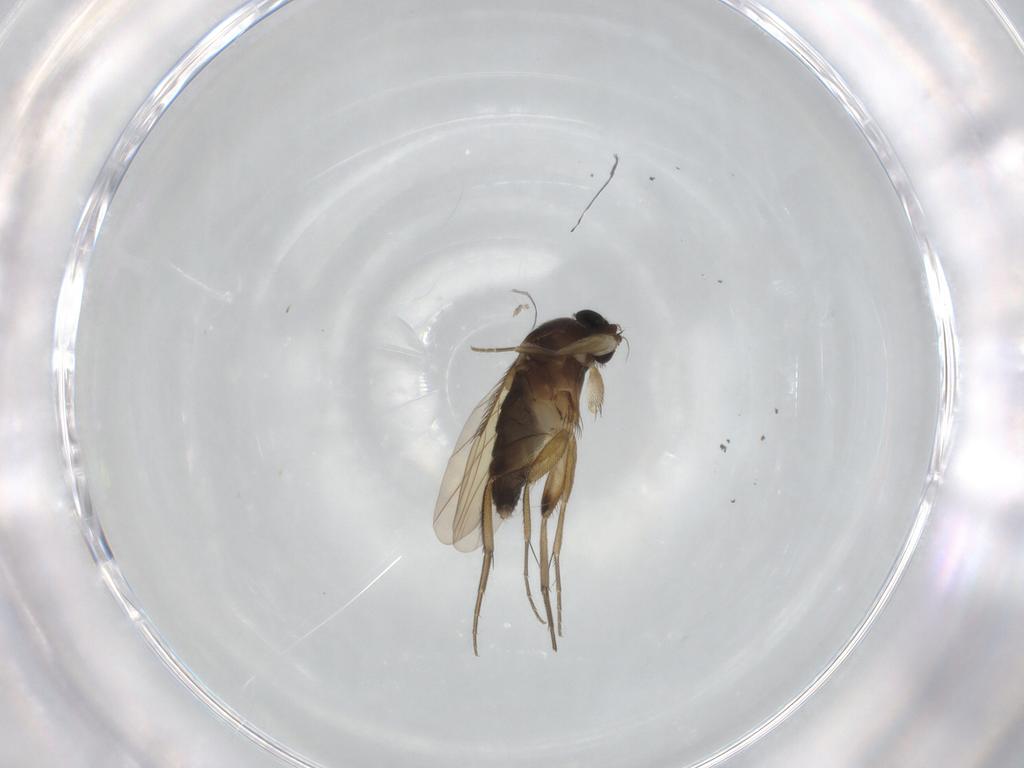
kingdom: Animalia
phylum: Arthropoda
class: Insecta
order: Diptera
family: Phoridae
